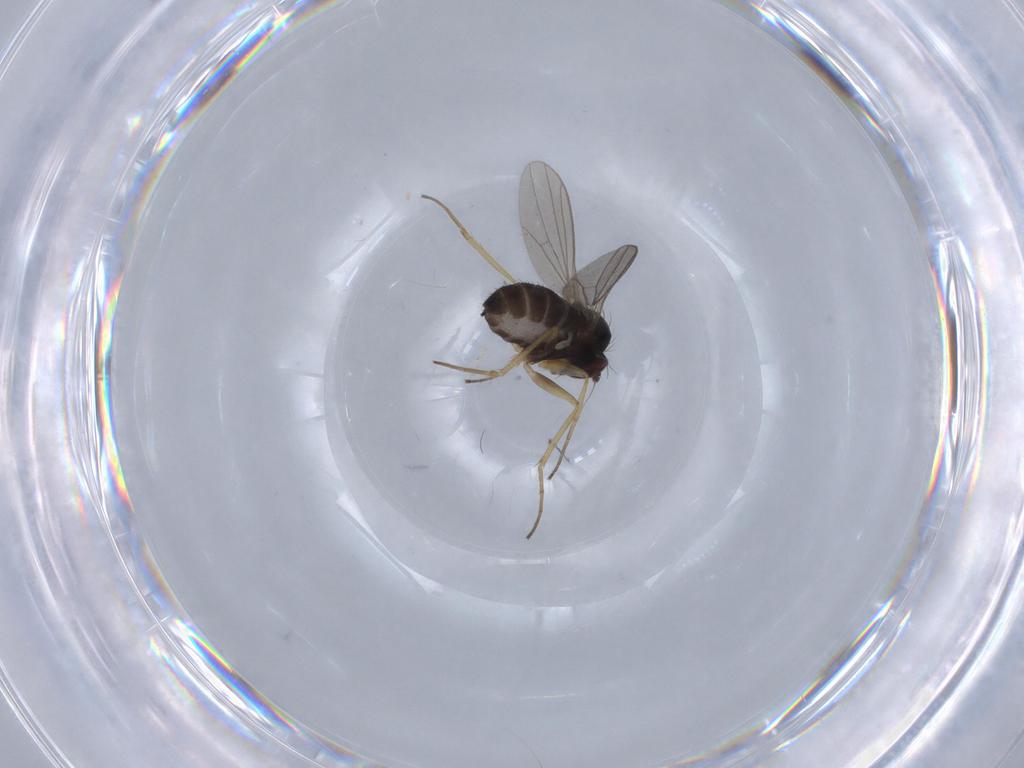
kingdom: Animalia
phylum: Arthropoda
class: Insecta
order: Diptera
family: Dolichopodidae
